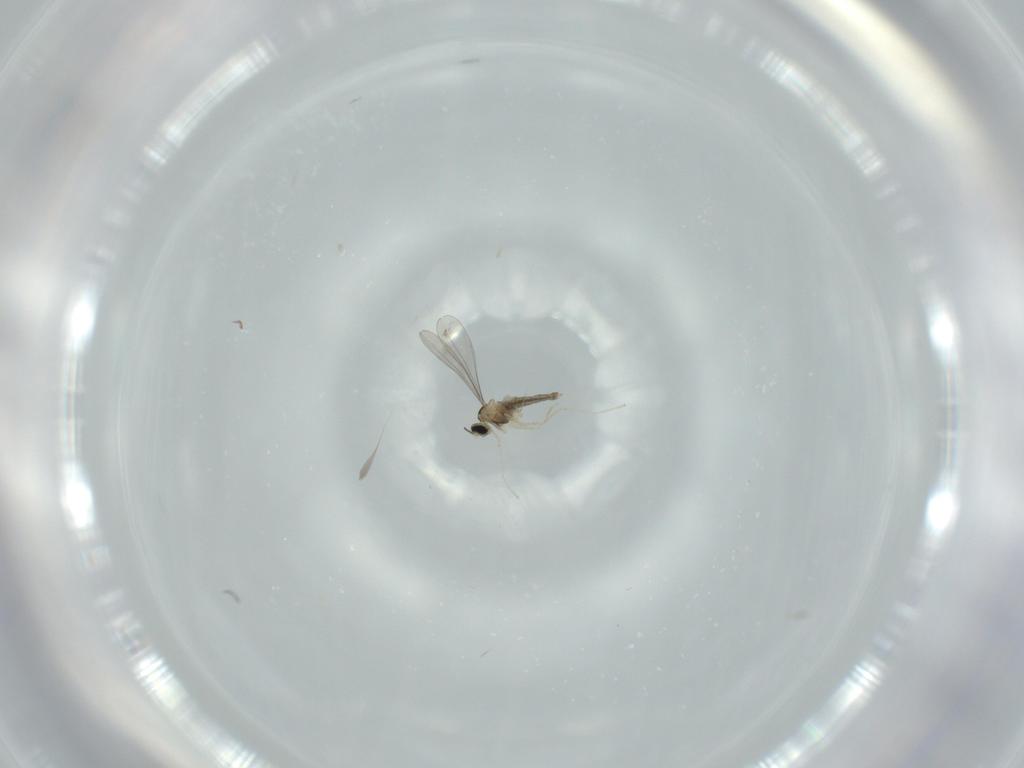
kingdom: Animalia
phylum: Arthropoda
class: Insecta
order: Diptera
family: Cecidomyiidae
